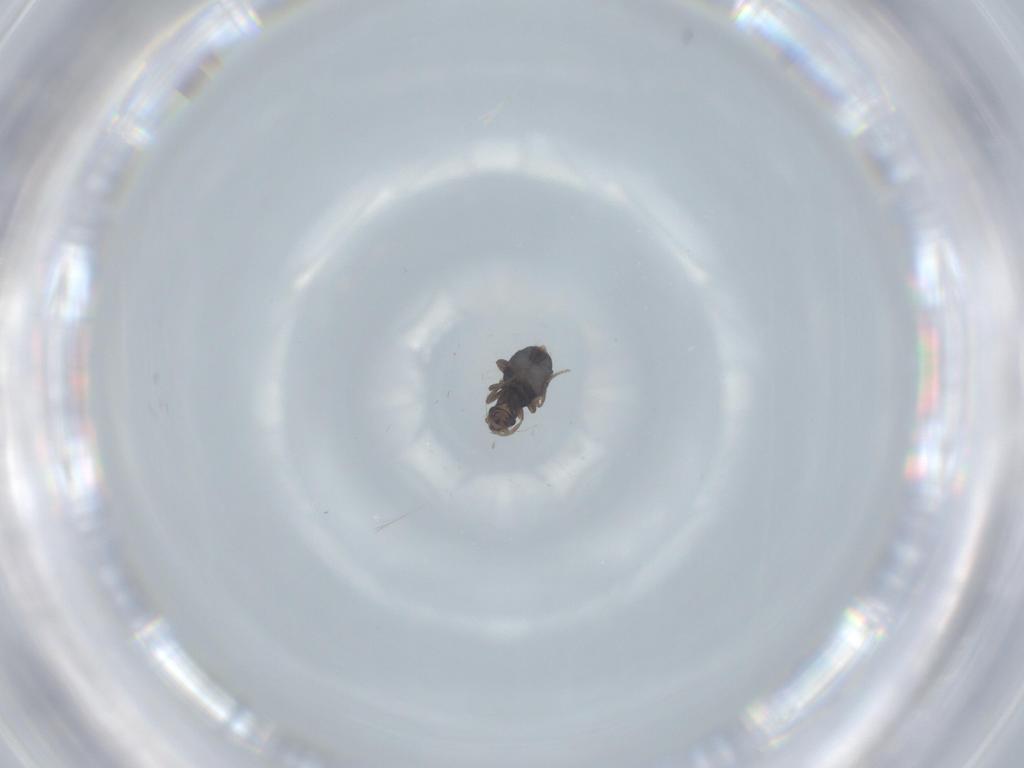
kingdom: Animalia
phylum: Arthropoda
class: Insecta
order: Diptera
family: Phoridae
